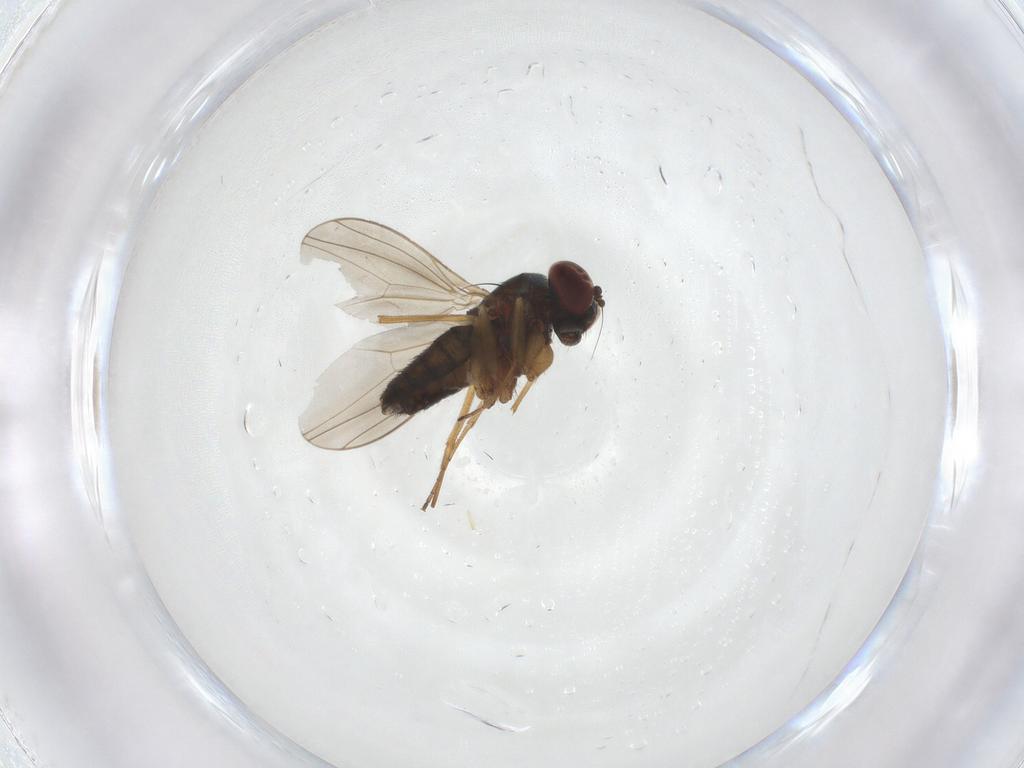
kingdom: Animalia
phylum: Arthropoda
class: Insecta
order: Diptera
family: Dolichopodidae
